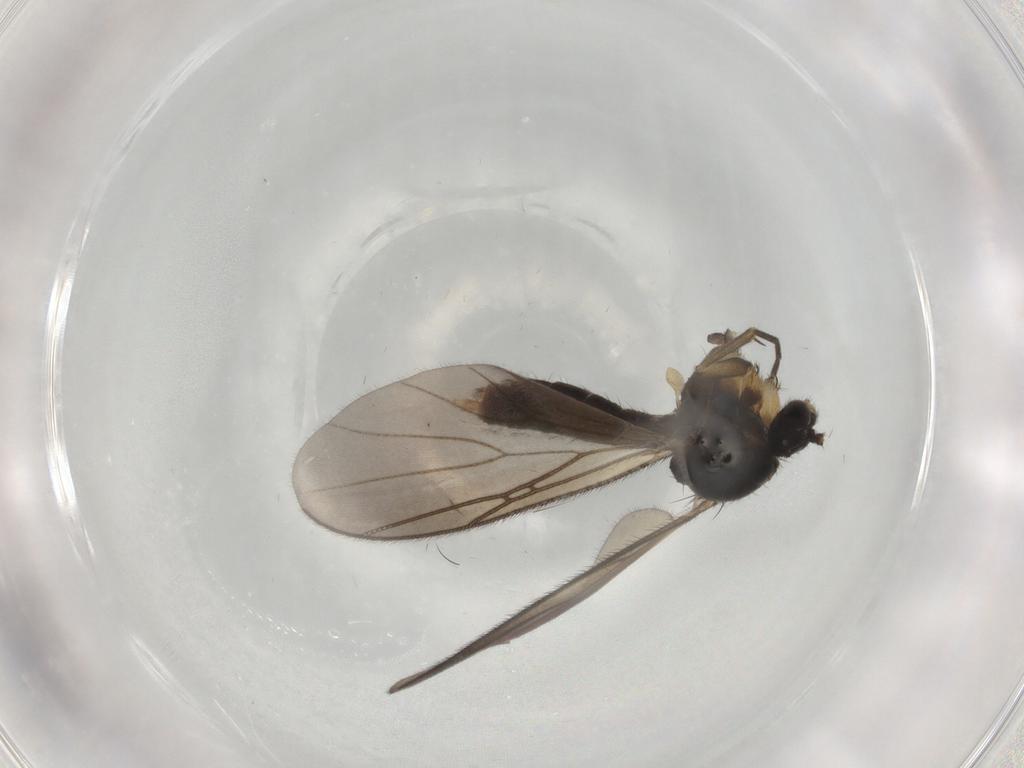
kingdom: Animalia
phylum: Arthropoda
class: Insecta
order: Diptera
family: Mycetophilidae
